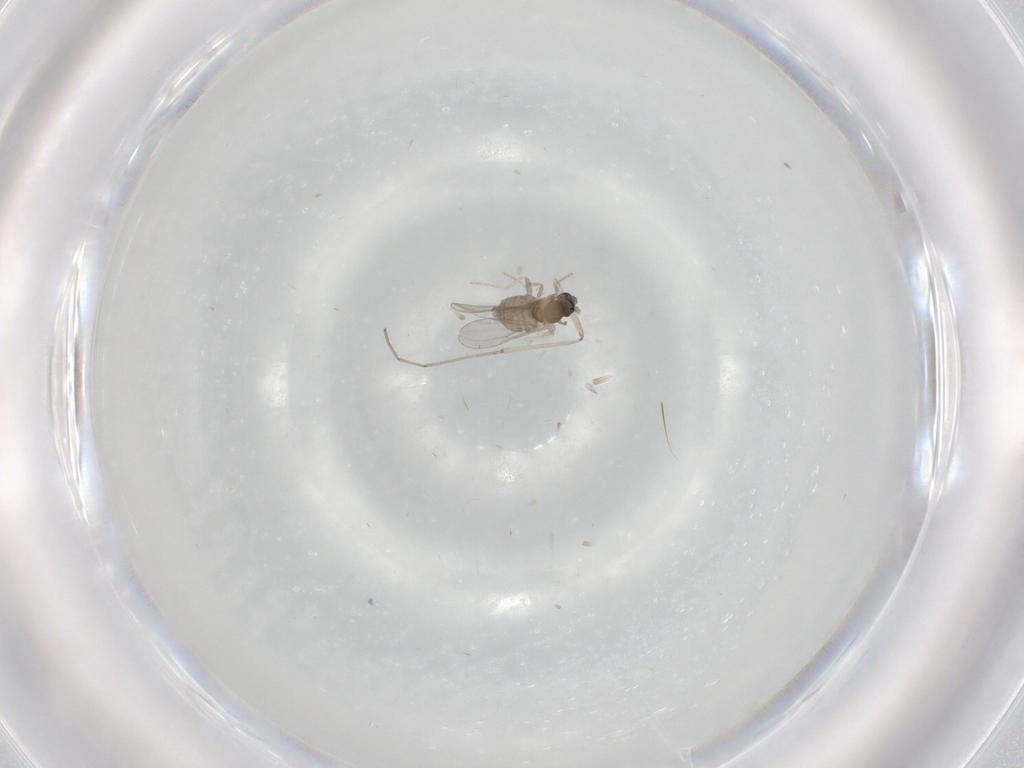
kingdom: Animalia
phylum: Arthropoda
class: Insecta
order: Diptera
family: Cecidomyiidae
